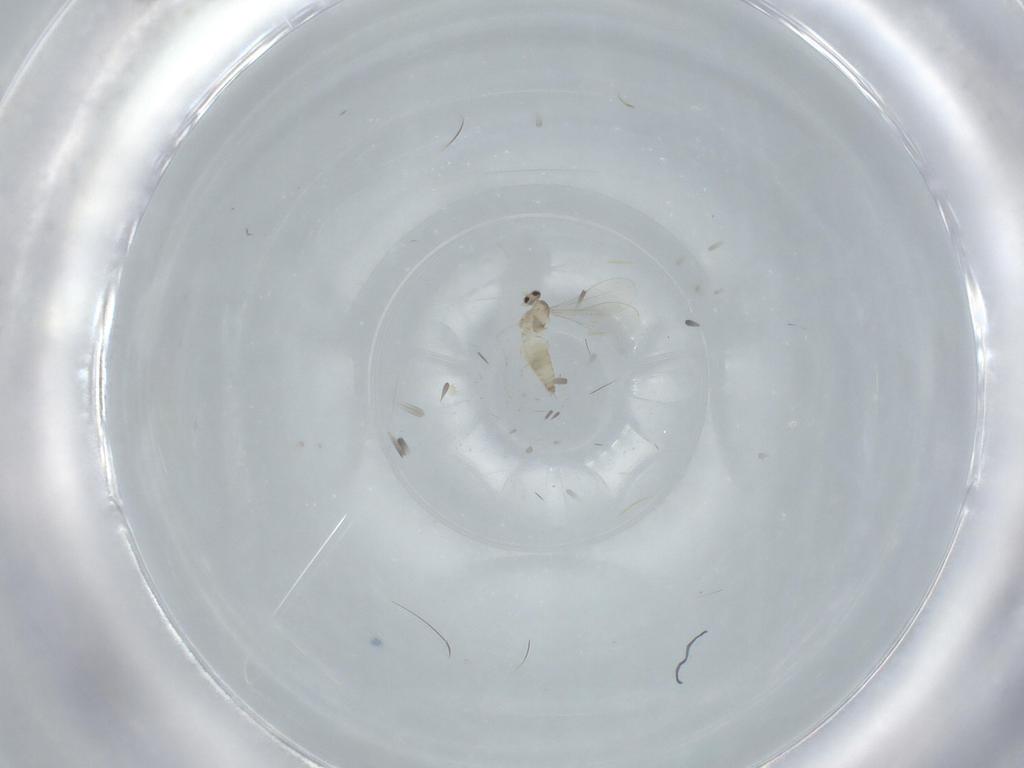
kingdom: Animalia
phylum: Arthropoda
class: Insecta
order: Diptera
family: Cecidomyiidae
